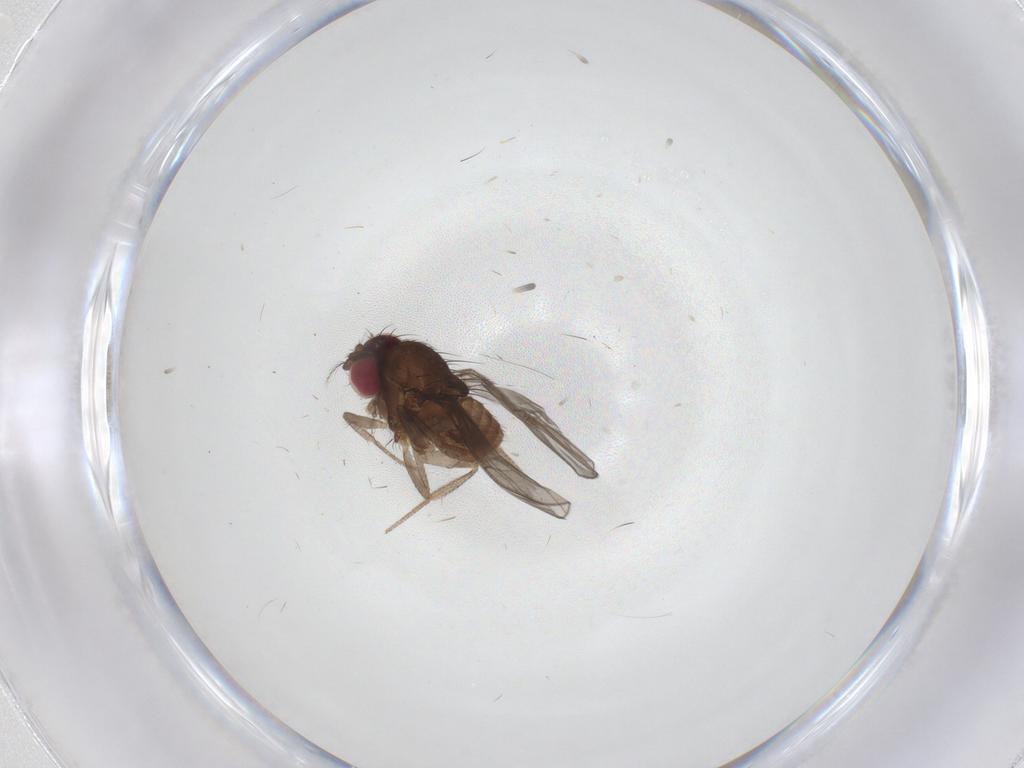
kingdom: Animalia
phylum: Arthropoda
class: Insecta
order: Diptera
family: Drosophilidae
